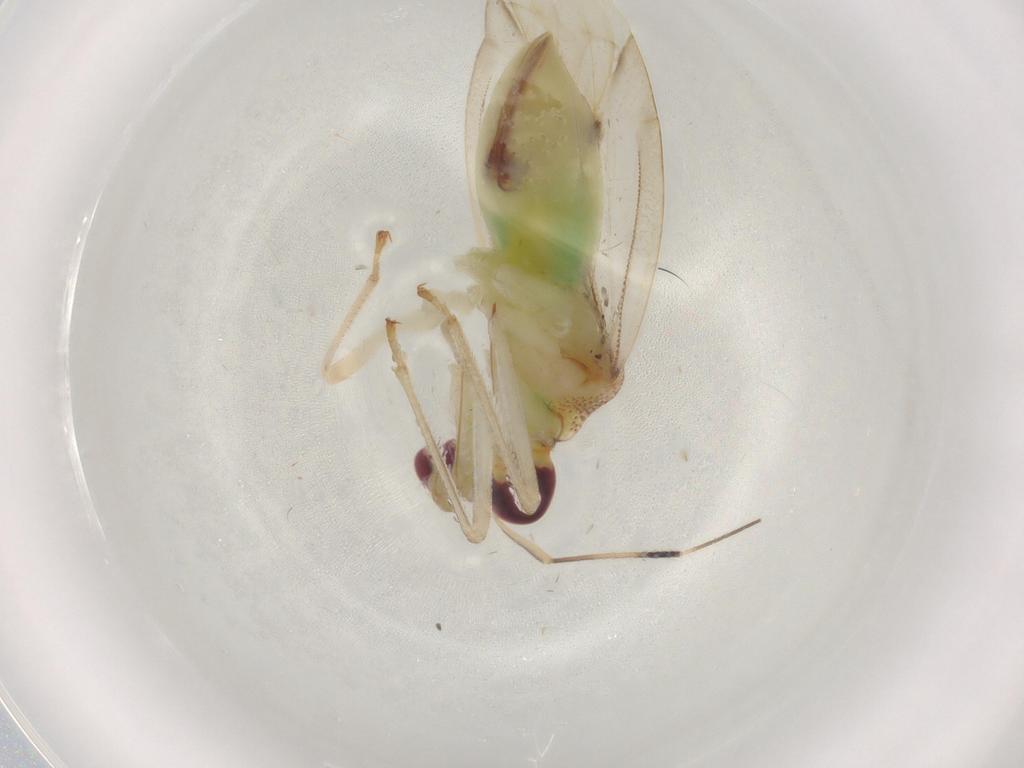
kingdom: Animalia
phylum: Arthropoda
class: Insecta
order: Hemiptera
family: Miridae
